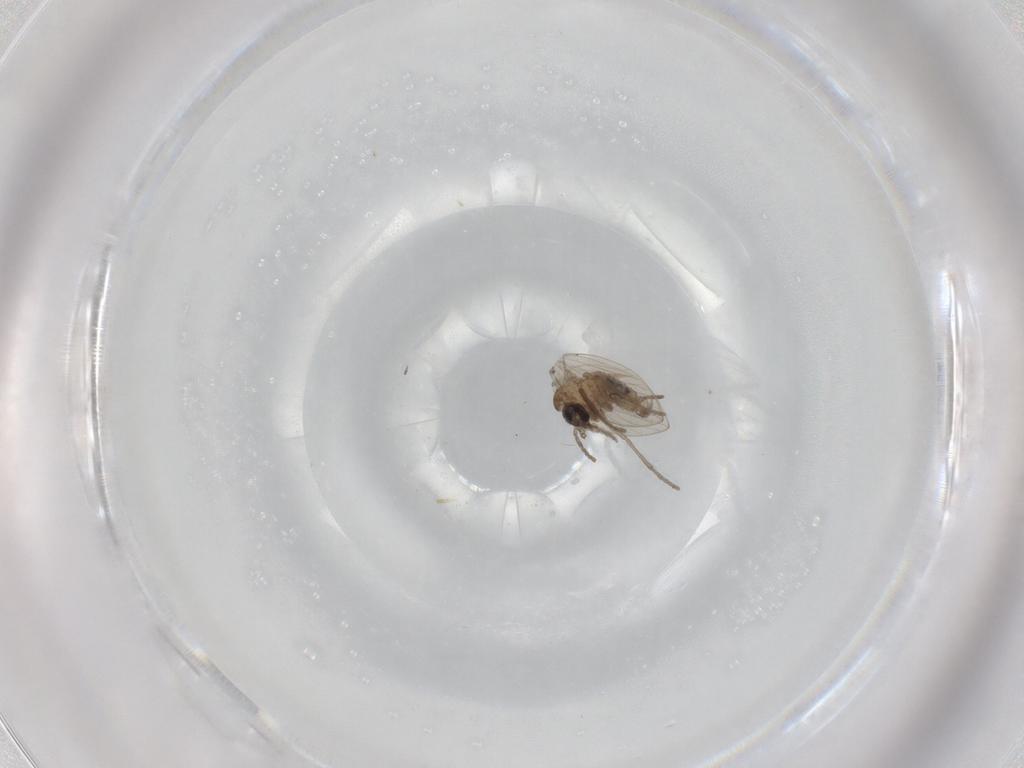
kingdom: Animalia
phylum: Arthropoda
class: Insecta
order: Diptera
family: Psychodidae
